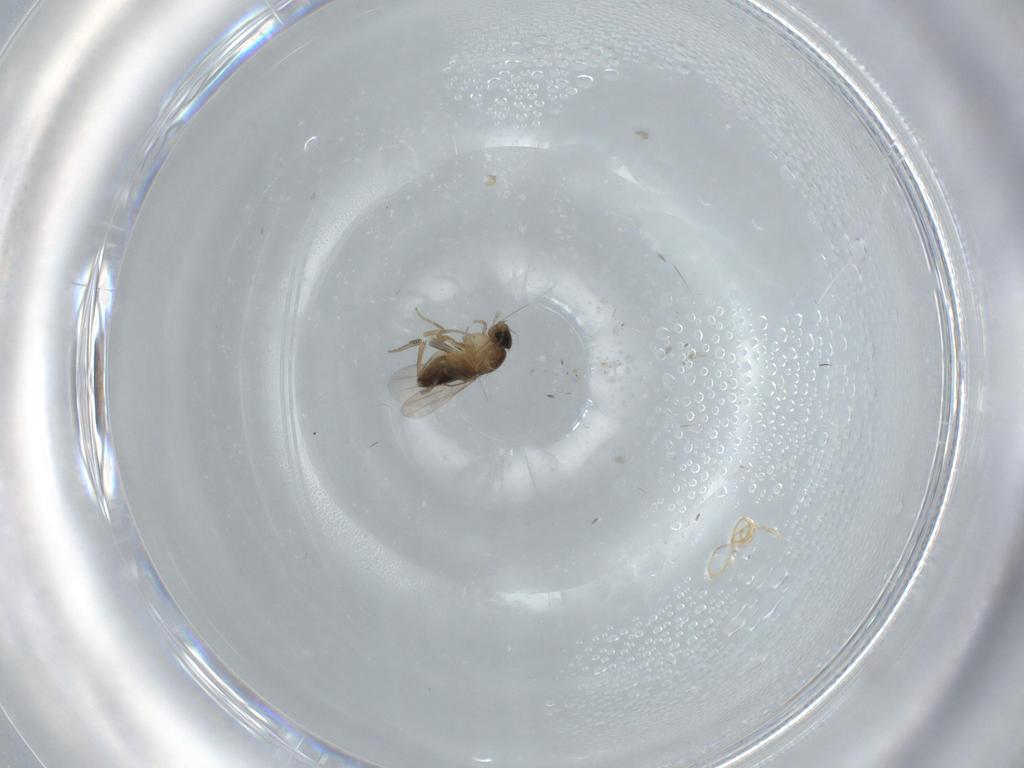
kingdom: Animalia
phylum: Arthropoda
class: Insecta
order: Diptera
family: Phoridae
